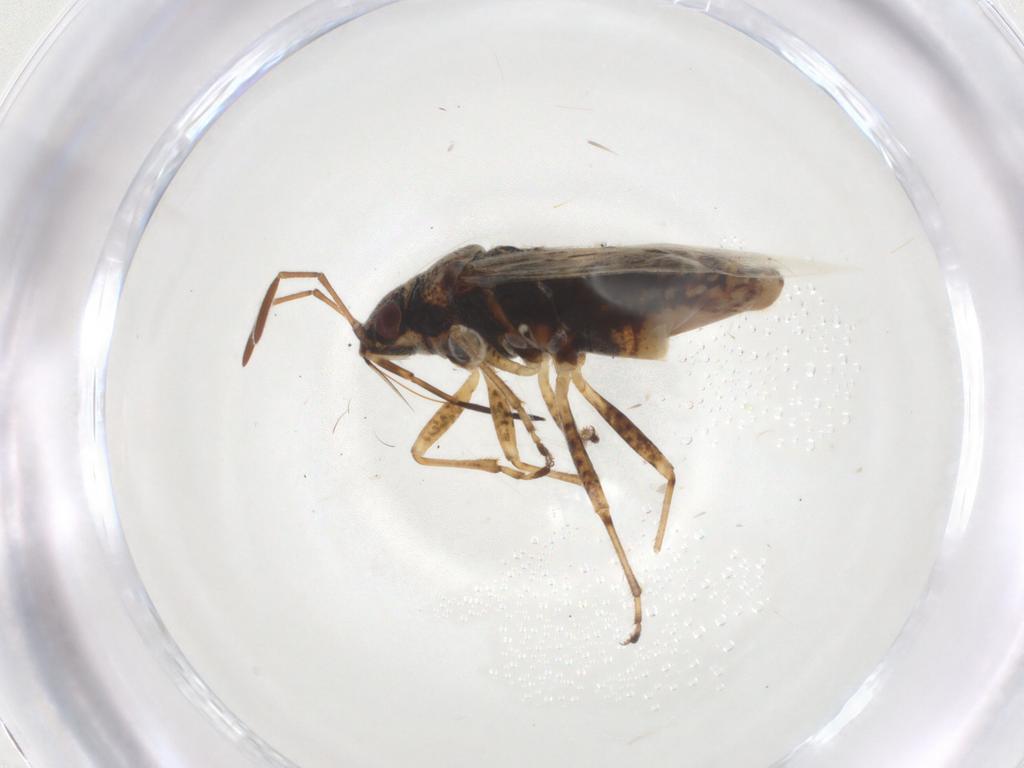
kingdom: Animalia
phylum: Arthropoda
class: Insecta
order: Hemiptera
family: Lygaeidae
